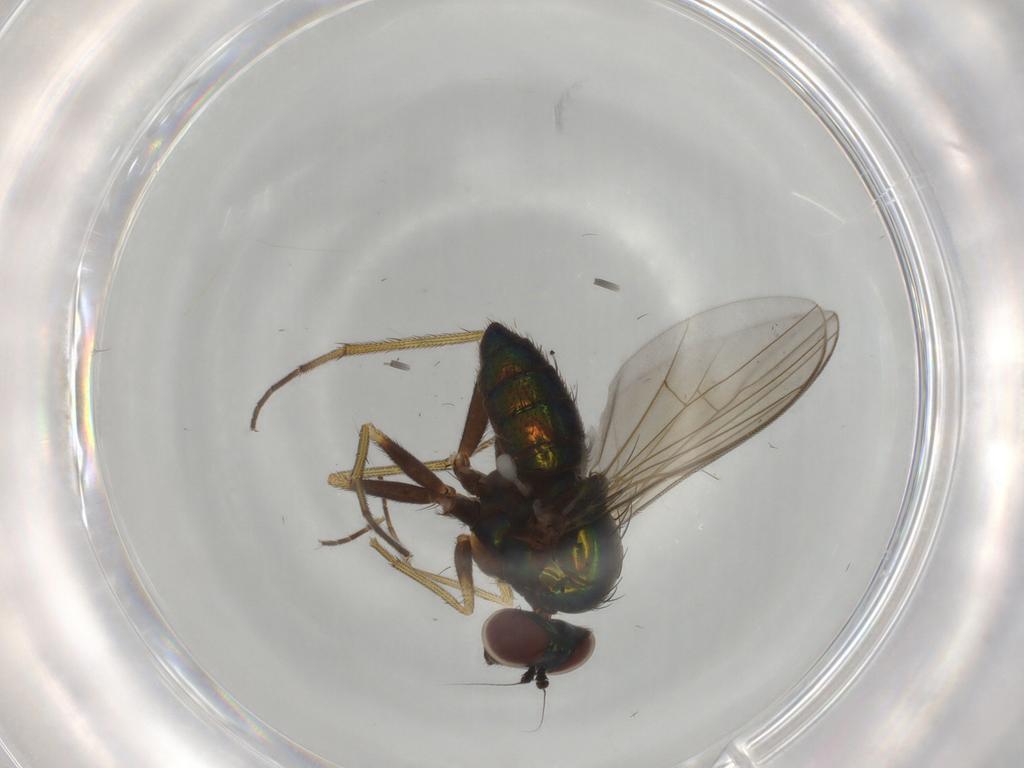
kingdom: Animalia
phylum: Arthropoda
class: Insecta
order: Diptera
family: Dolichopodidae
